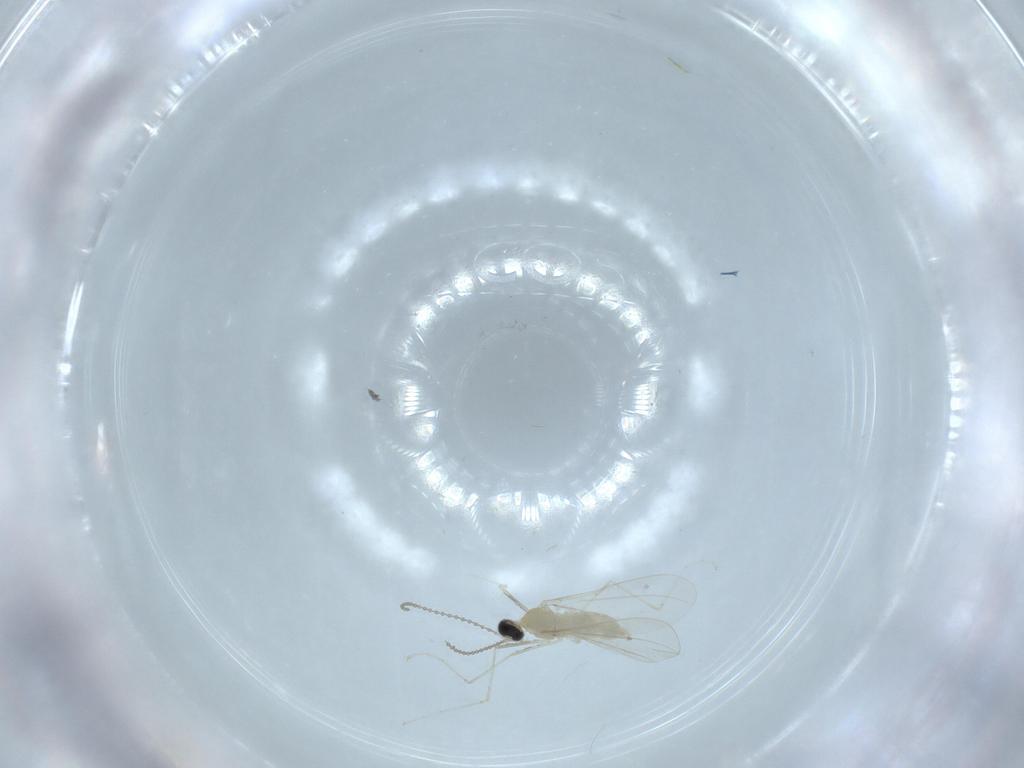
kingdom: Animalia
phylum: Arthropoda
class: Insecta
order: Diptera
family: Cecidomyiidae
